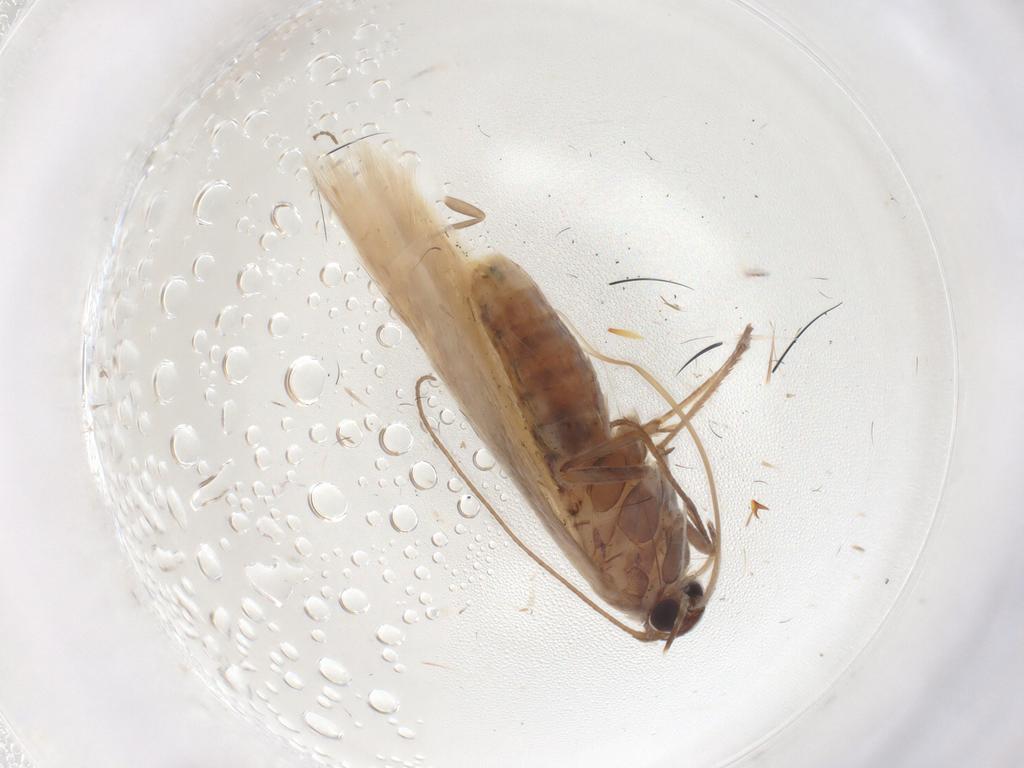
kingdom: Animalia
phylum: Arthropoda
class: Insecta
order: Lepidoptera
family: Scythrididae
